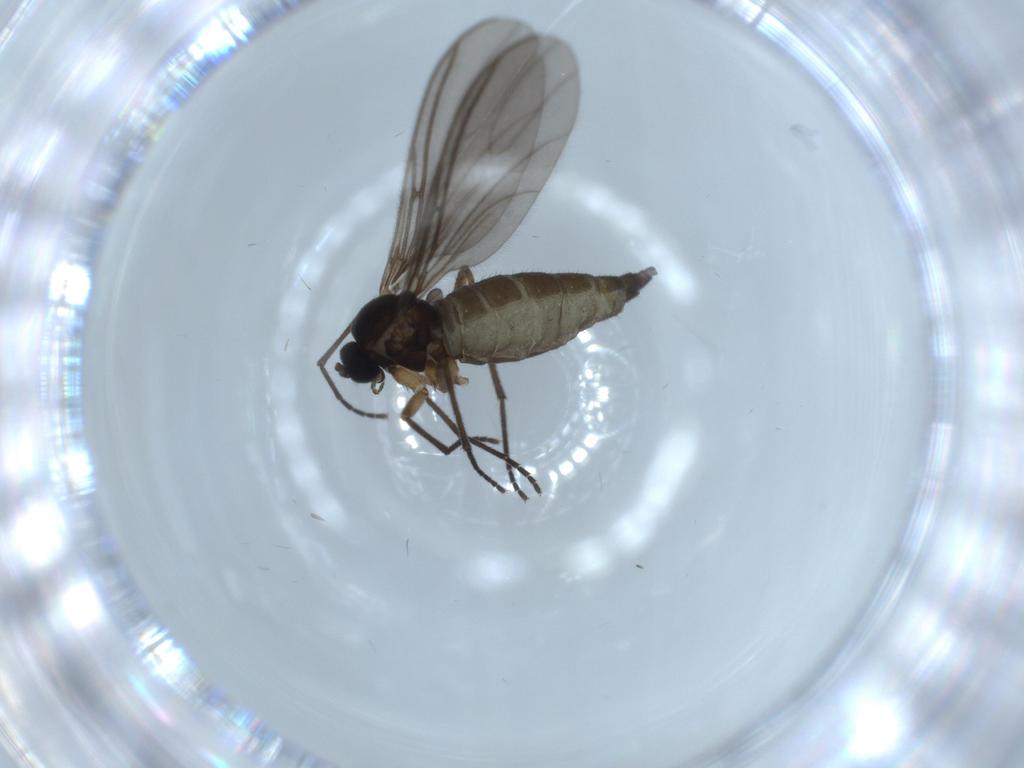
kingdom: Animalia
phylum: Arthropoda
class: Insecta
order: Diptera
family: Sciaridae
